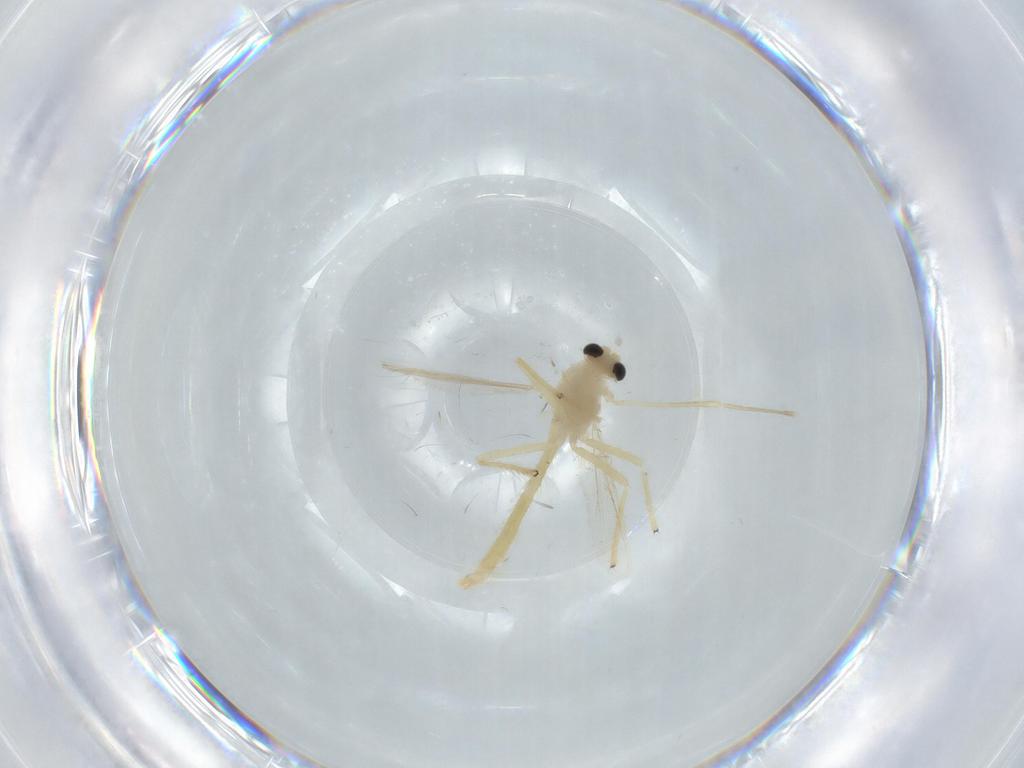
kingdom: Animalia
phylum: Arthropoda
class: Insecta
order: Diptera
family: Chironomidae
